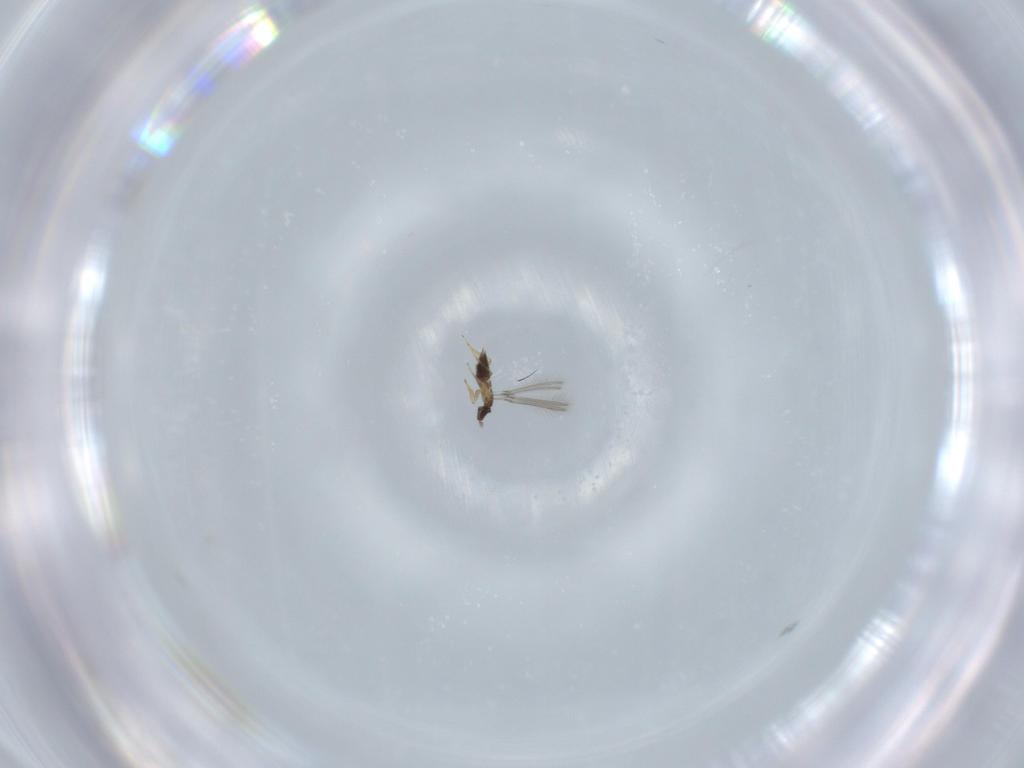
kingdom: Animalia
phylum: Arthropoda
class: Insecta
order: Hymenoptera
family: Mymaridae
